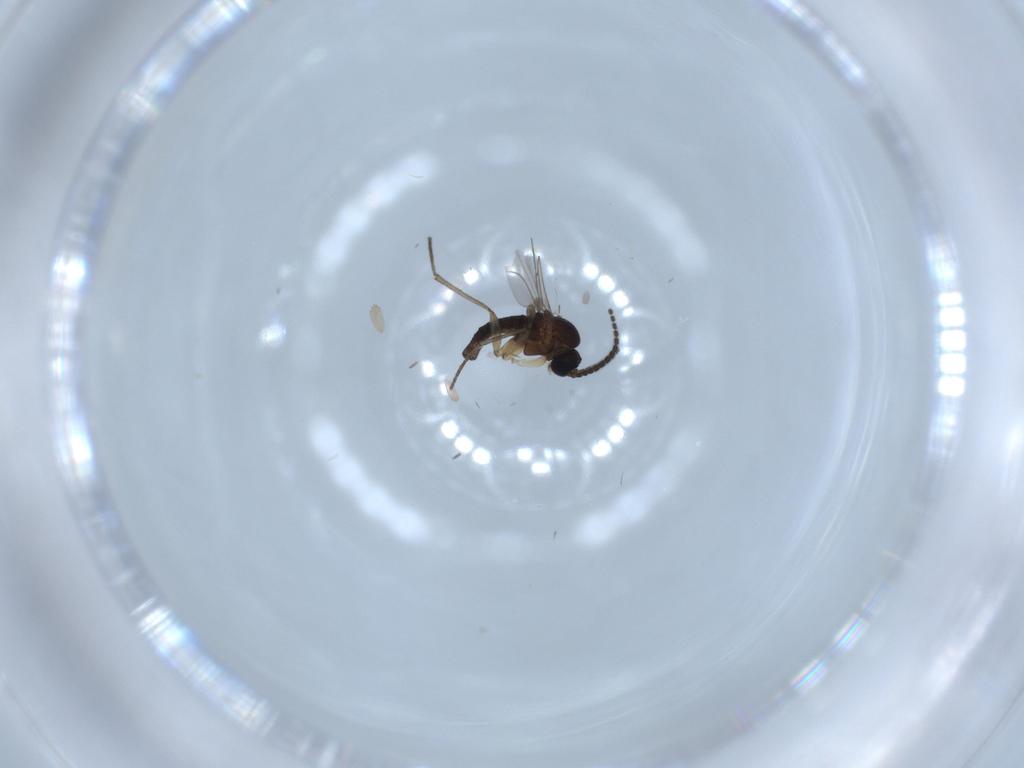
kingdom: Animalia
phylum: Arthropoda
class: Insecta
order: Diptera
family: Sciaridae
